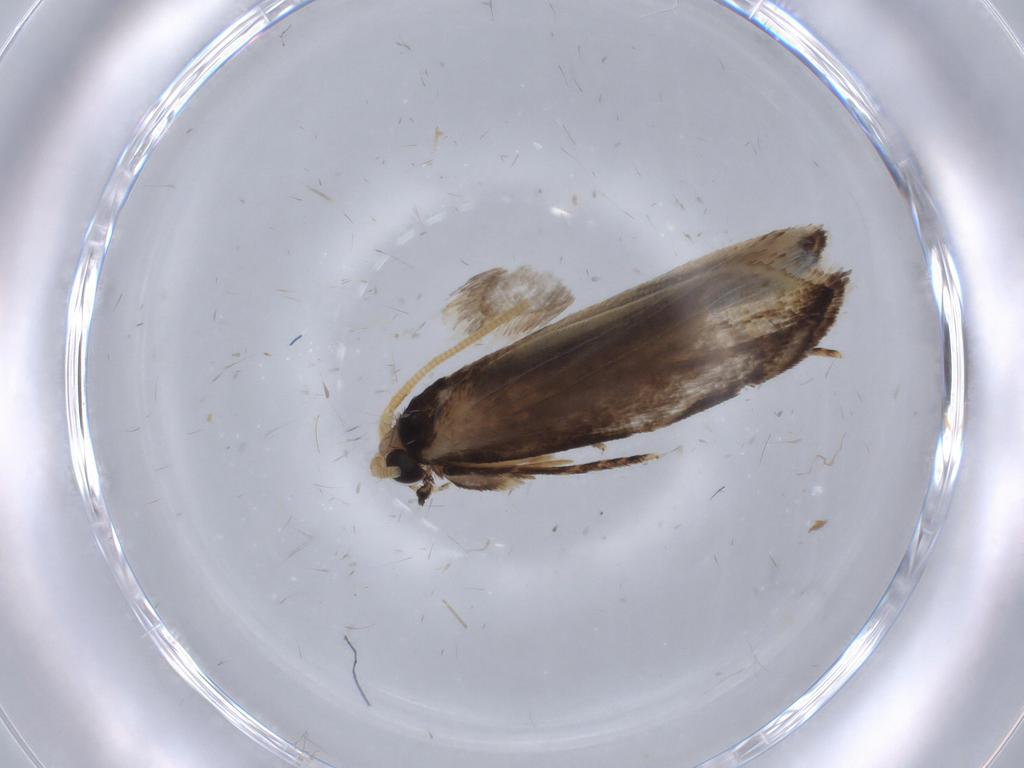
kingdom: Animalia
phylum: Arthropoda
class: Insecta
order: Lepidoptera
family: Tineidae
